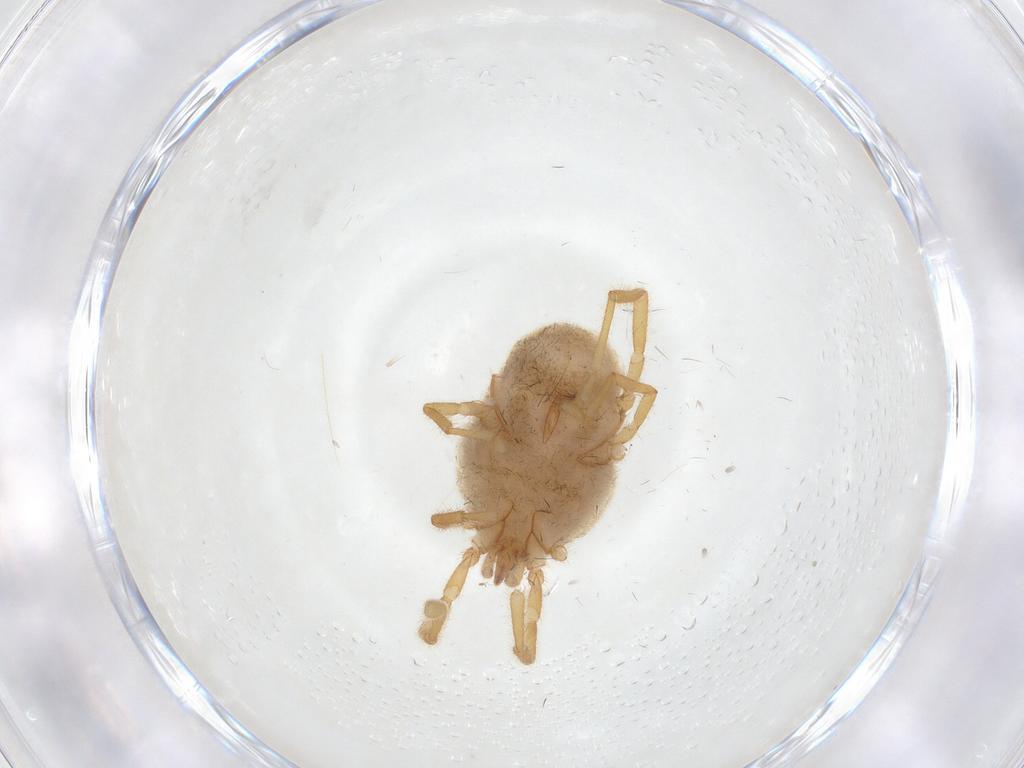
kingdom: Animalia
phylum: Arthropoda
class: Arachnida
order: Trombidiformes
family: Erythraeidae
